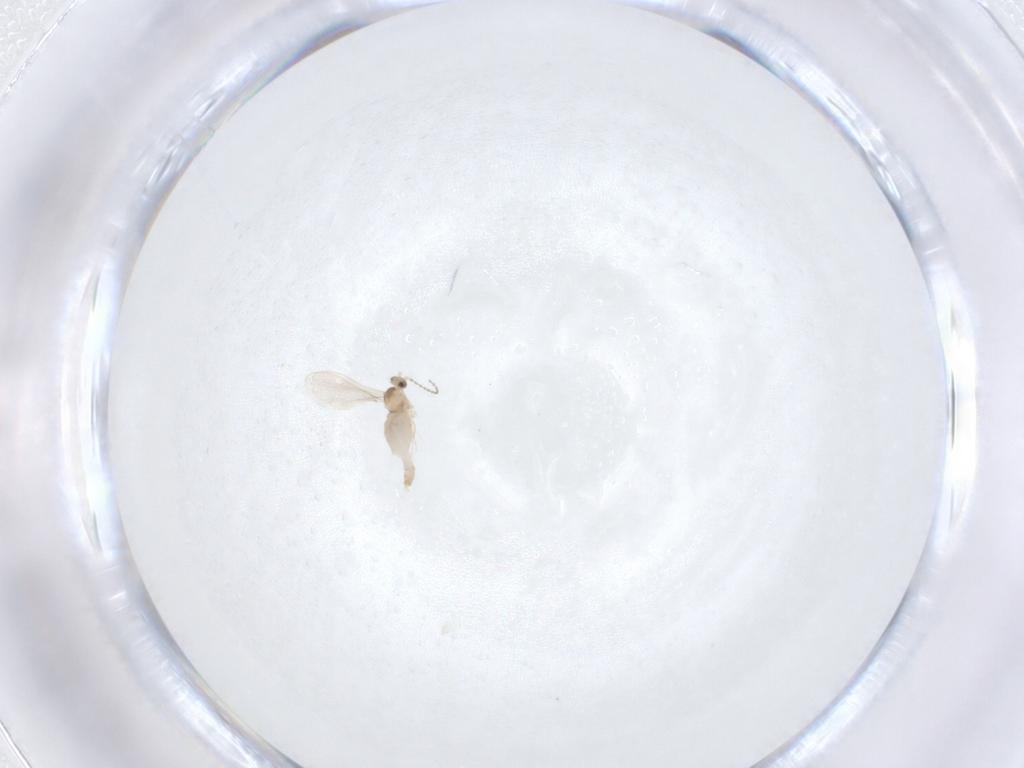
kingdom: Animalia
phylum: Arthropoda
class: Insecta
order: Diptera
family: Cecidomyiidae
